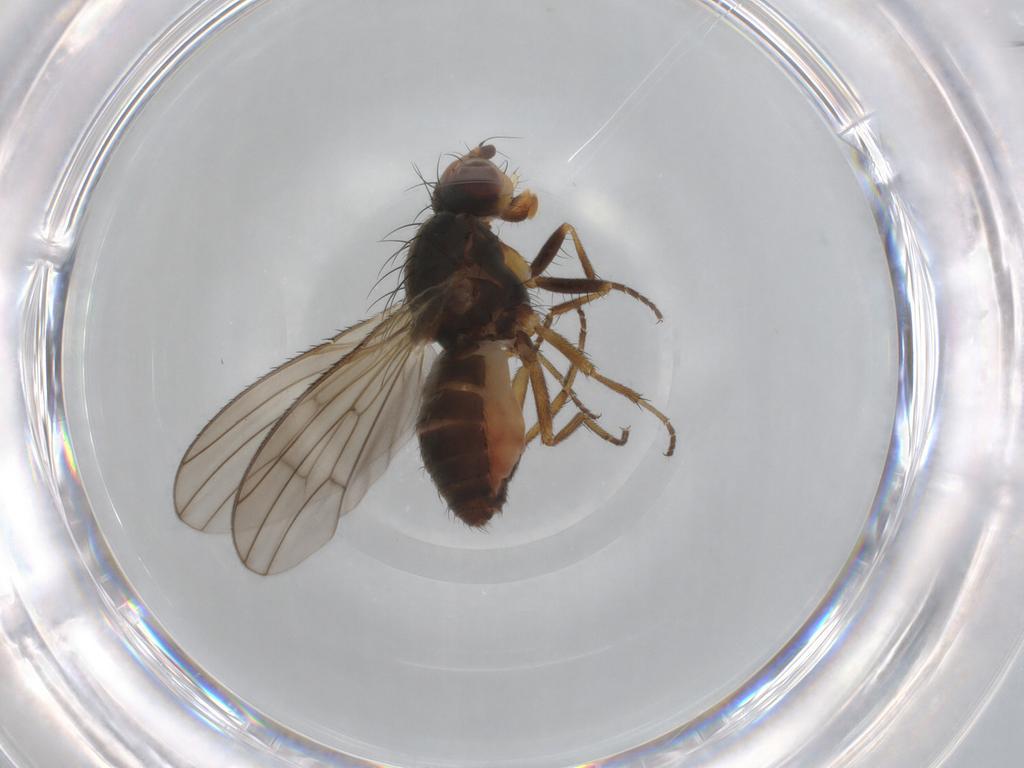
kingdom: Animalia
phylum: Arthropoda
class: Insecta
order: Diptera
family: Heleomyzidae
